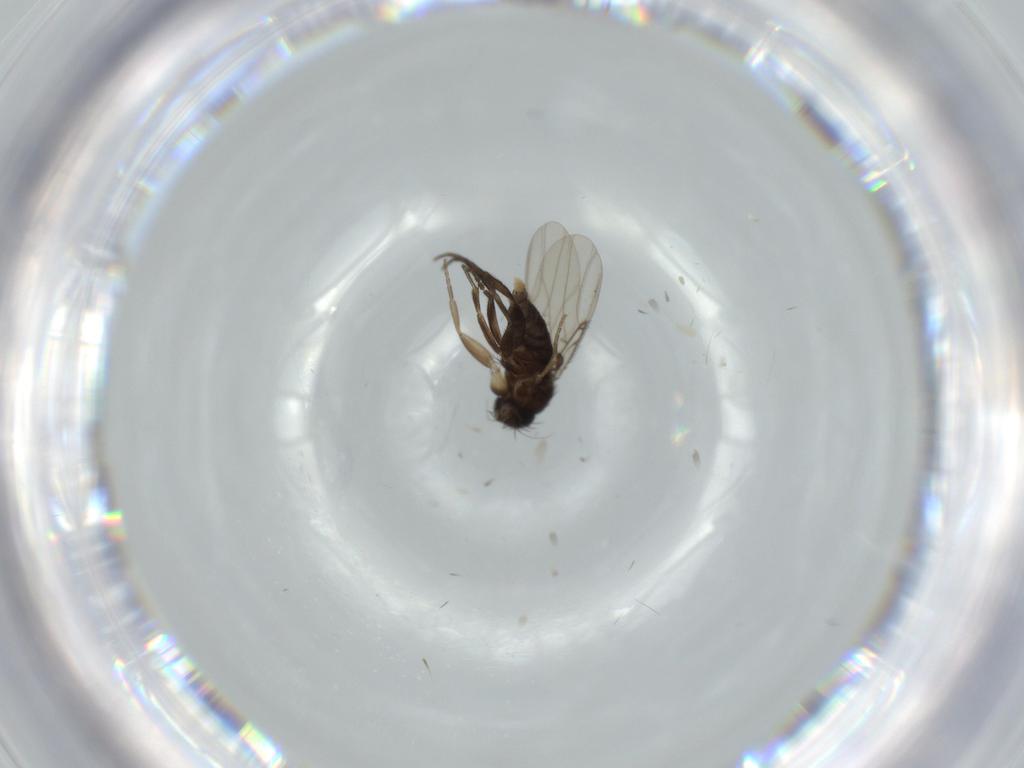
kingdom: Animalia
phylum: Arthropoda
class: Insecta
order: Diptera
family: Phoridae
